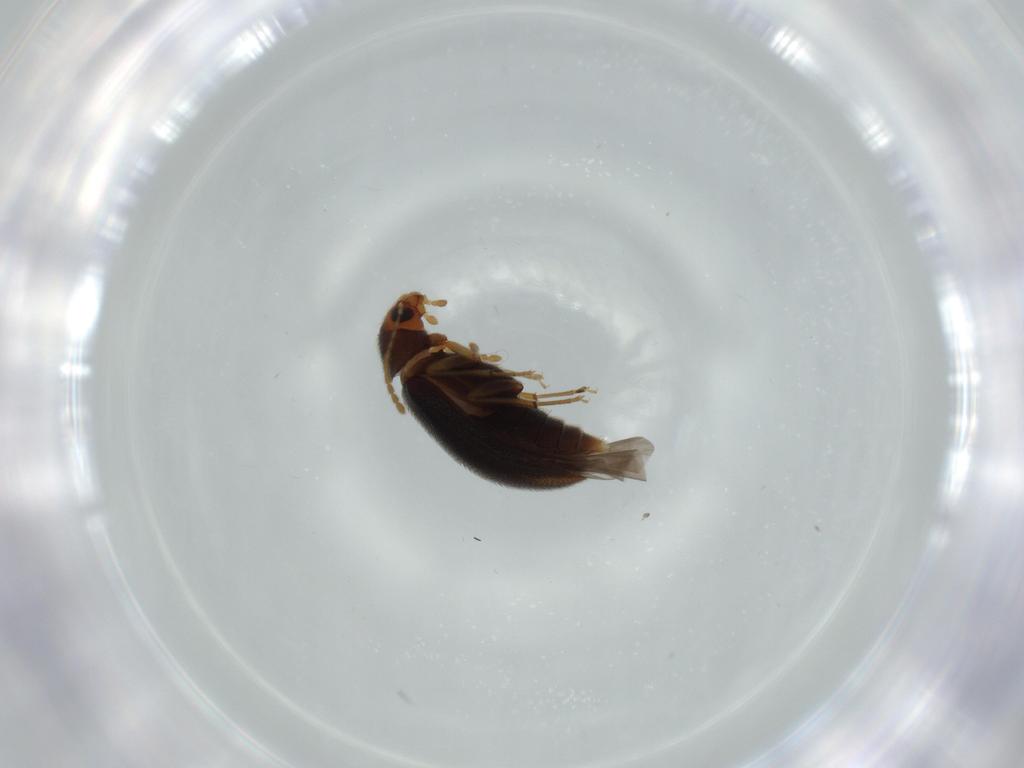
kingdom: Animalia
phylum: Arthropoda
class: Insecta
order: Coleoptera
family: Melandryidae
